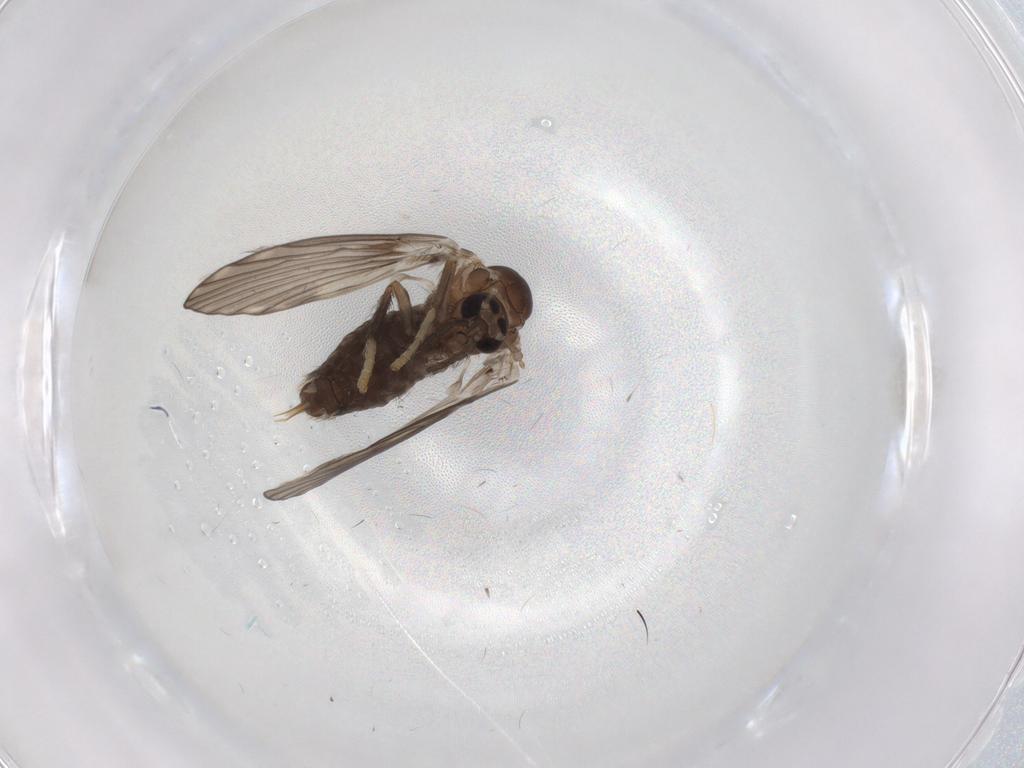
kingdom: Animalia
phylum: Arthropoda
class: Insecta
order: Diptera
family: Psychodidae
